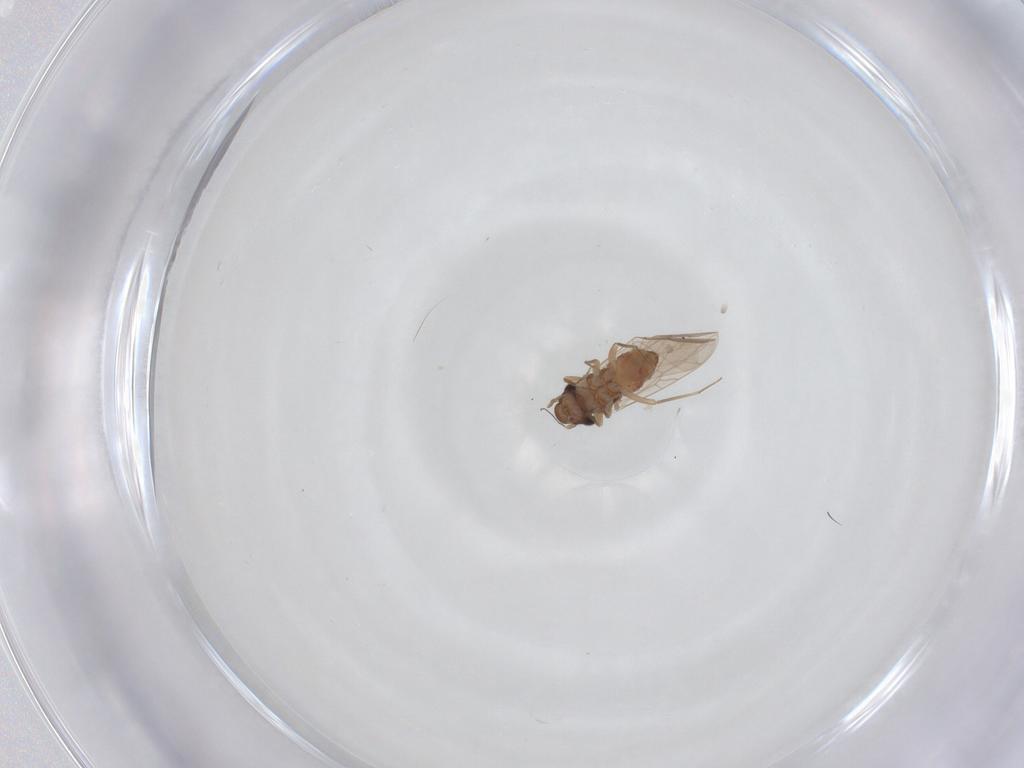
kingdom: Animalia
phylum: Arthropoda
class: Insecta
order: Psocodea
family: Lepidopsocidae
